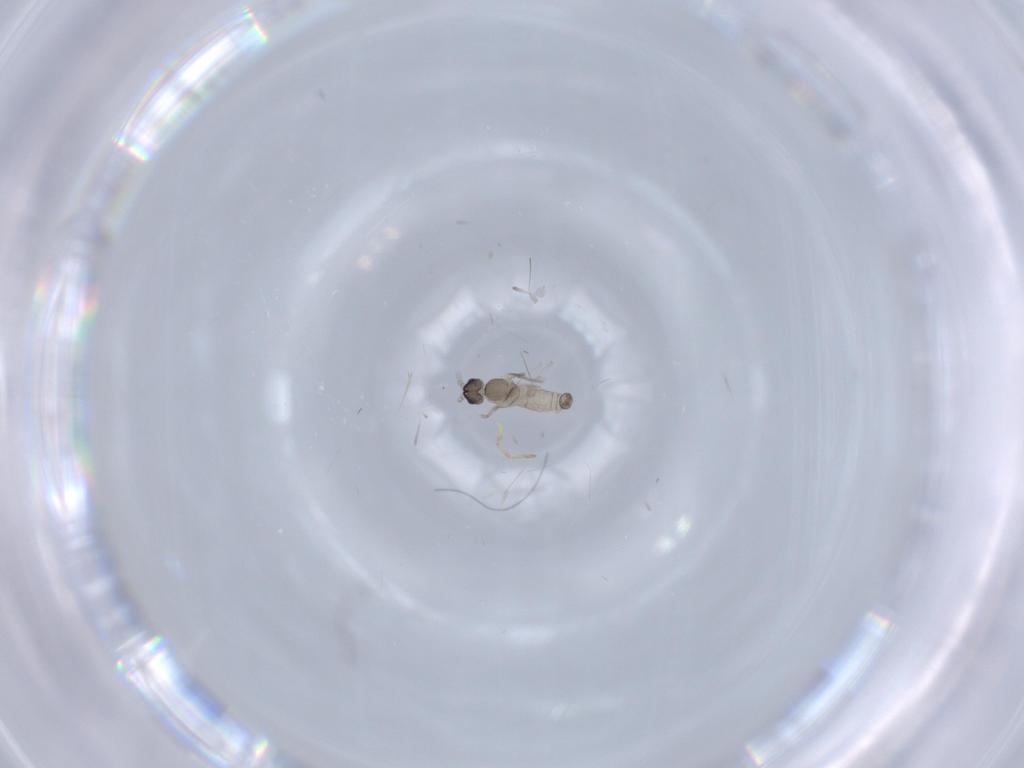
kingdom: Animalia
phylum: Arthropoda
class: Insecta
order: Diptera
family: Cecidomyiidae
